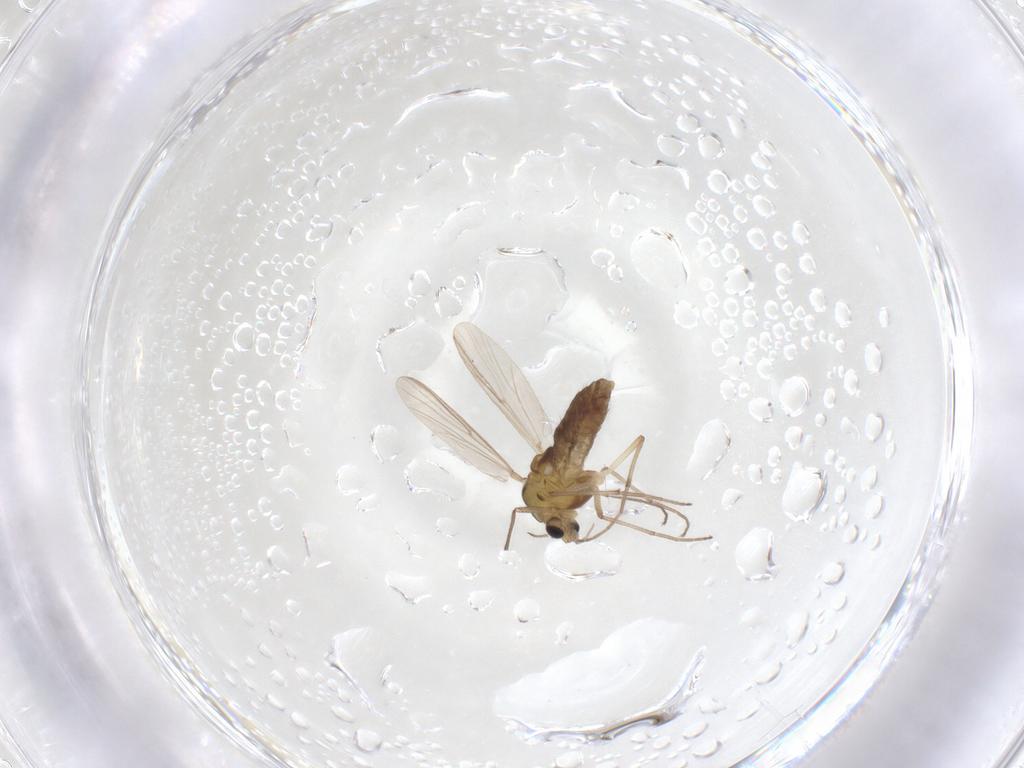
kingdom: Animalia
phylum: Arthropoda
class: Insecta
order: Diptera
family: Chironomidae
